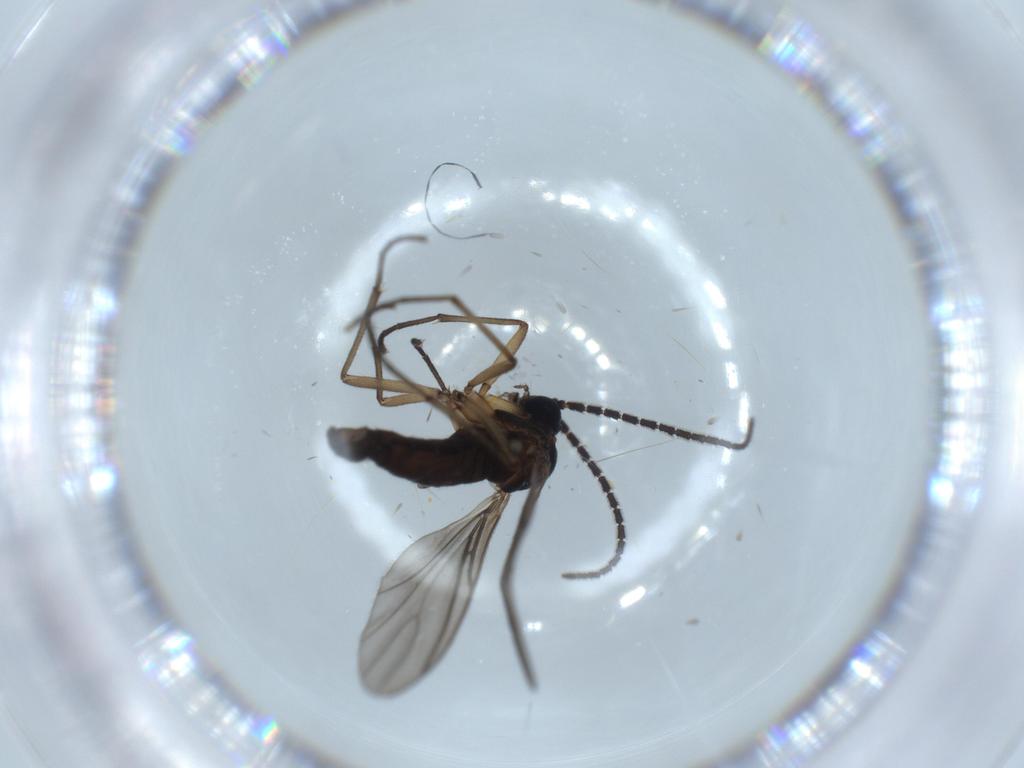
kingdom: Animalia
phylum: Arthropoda
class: Insecta
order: Diptera
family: Sciaridae
